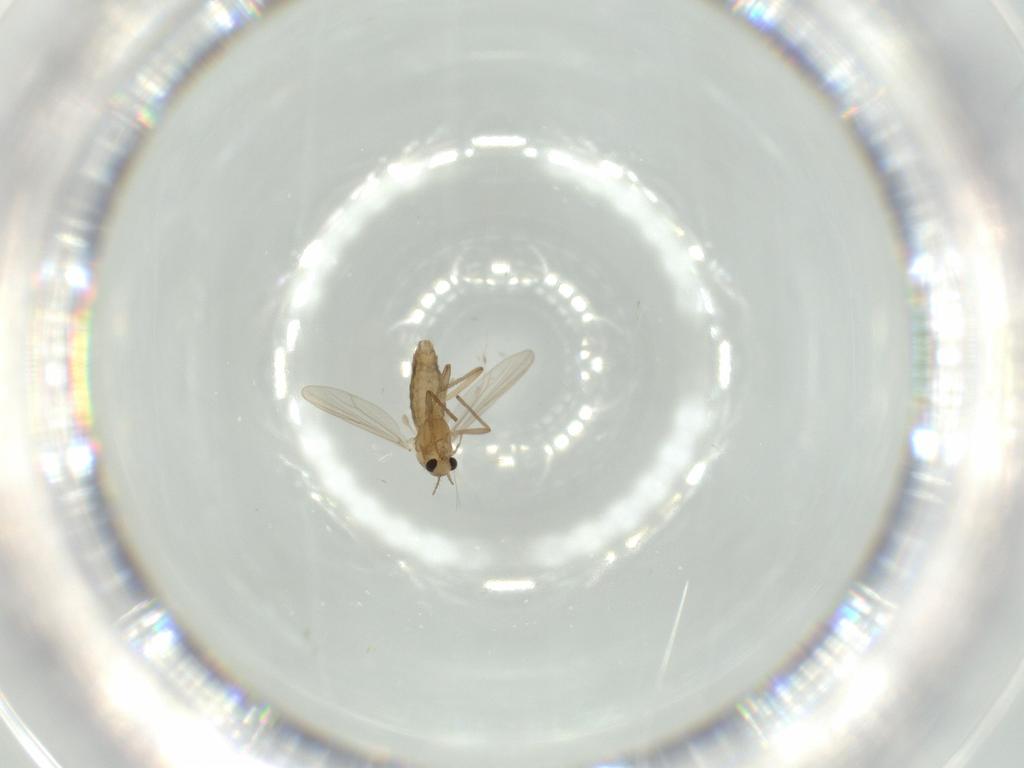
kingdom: Animalia
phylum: Arthropoda
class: Insecta
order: Diptera
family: Chironomidae
